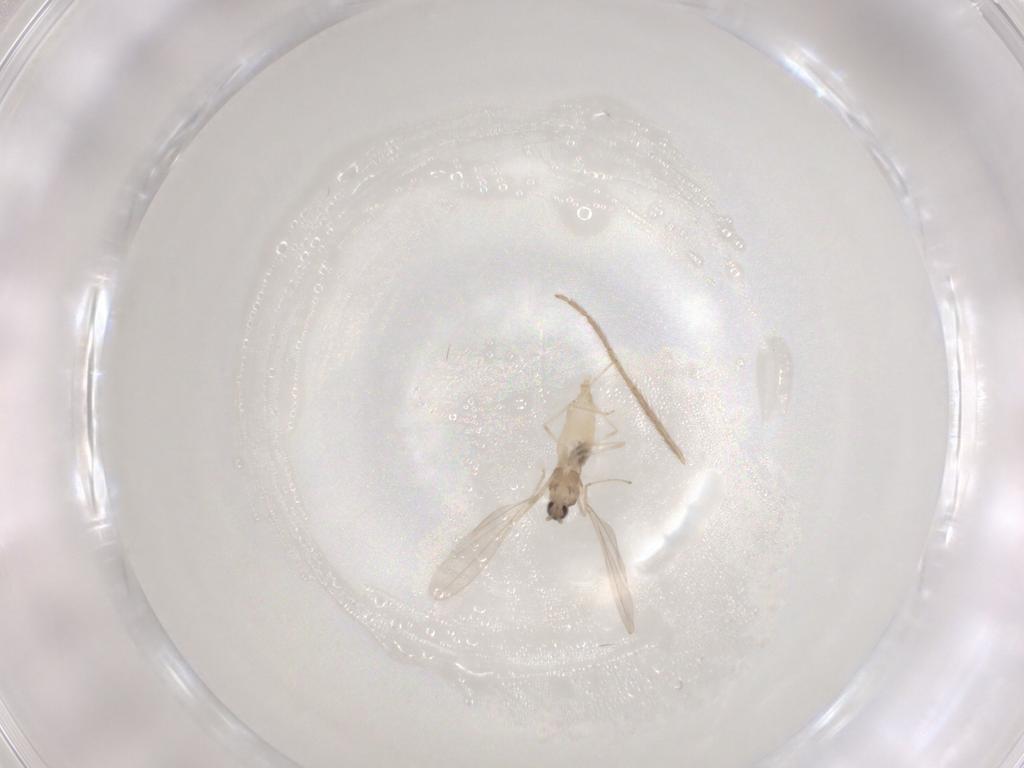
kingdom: Animalia
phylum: Arthropoda
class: Insecta
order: Diptera
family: Chironomidae
